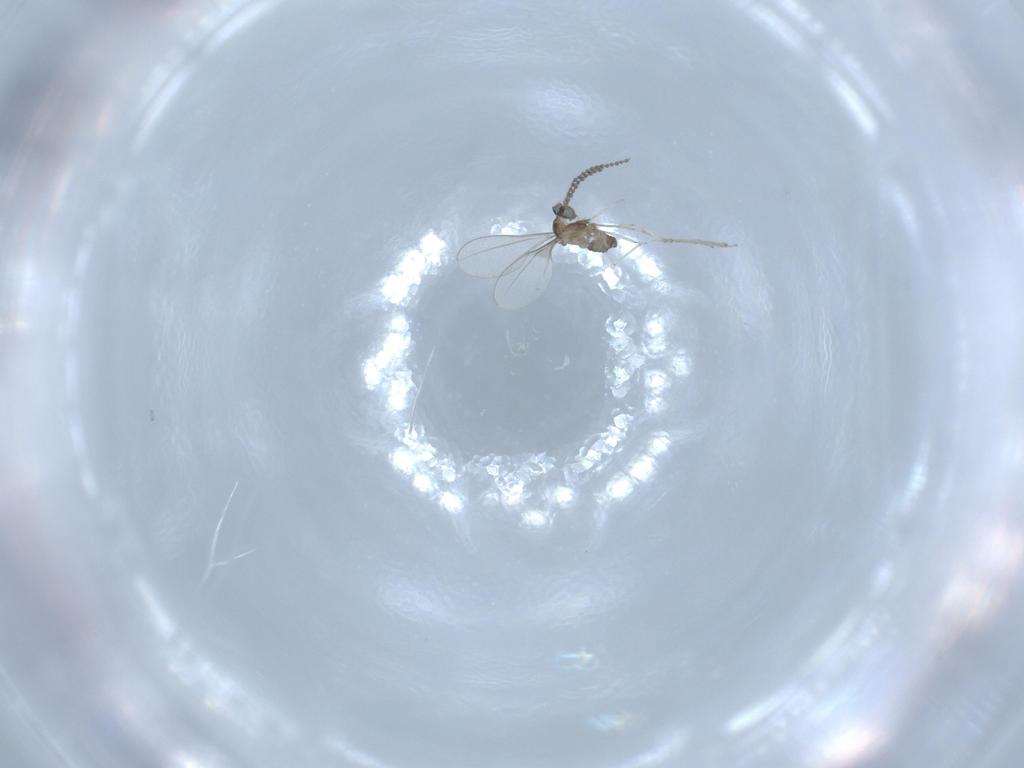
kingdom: Animalia
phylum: Arthropoda
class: Insecta
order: Diptera
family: Cecidomyiidae
